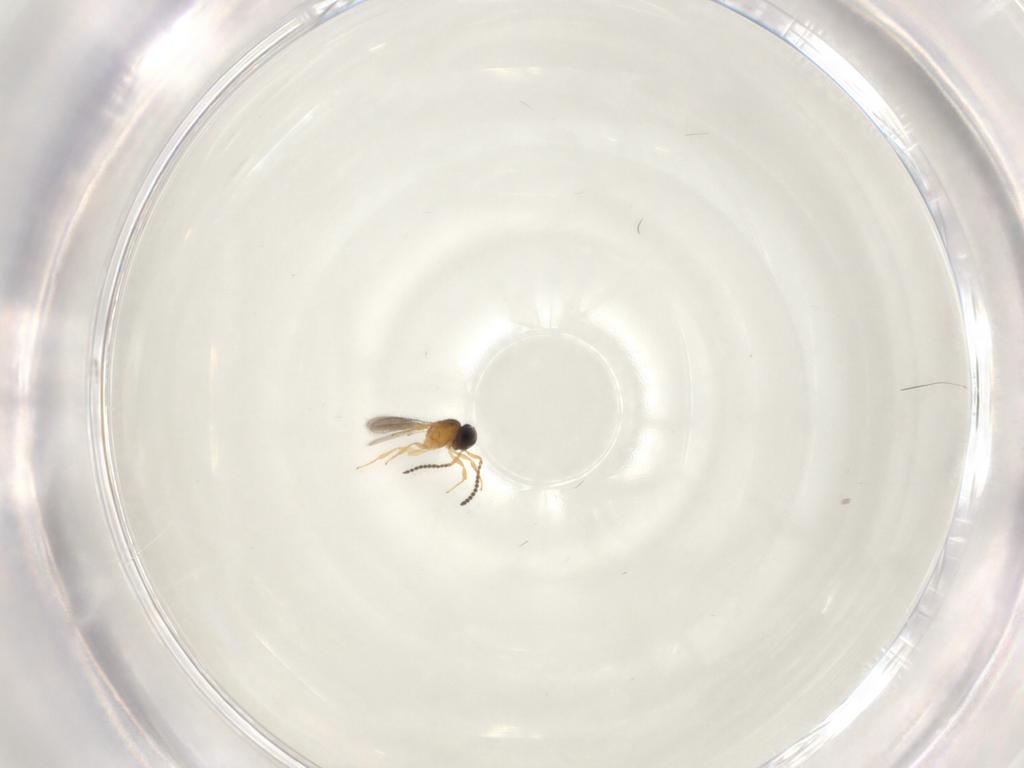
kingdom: Animalia
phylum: Arthropoda
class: Insecta
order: Hymenoptera
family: Scelionidae
